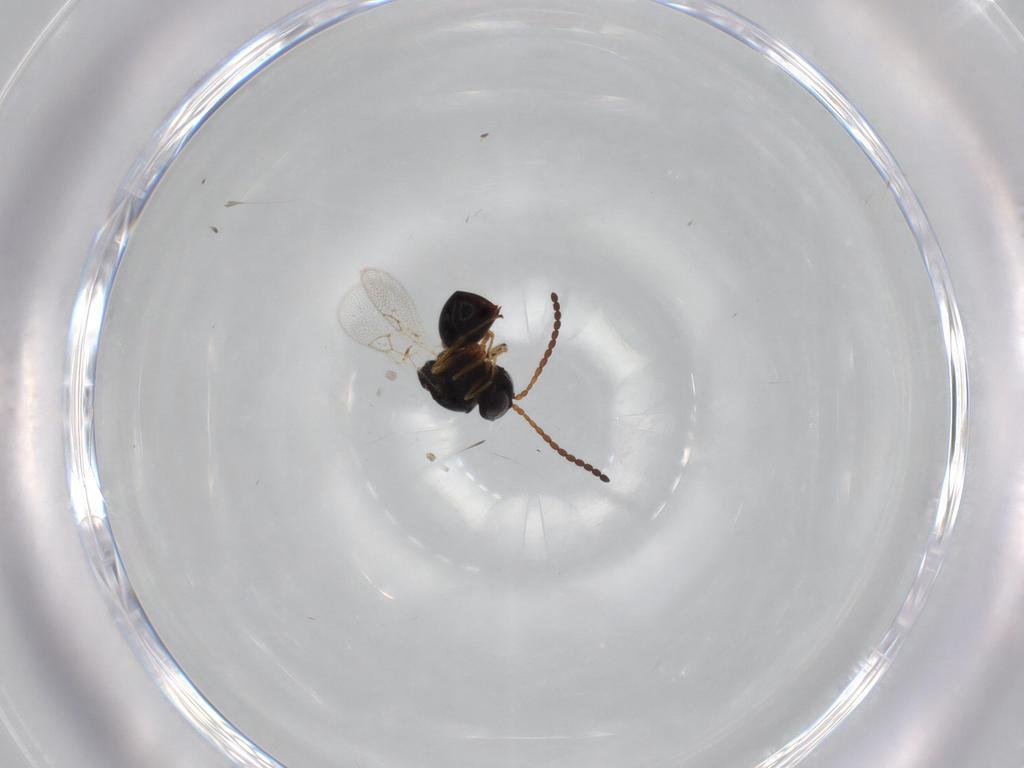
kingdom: Animalia
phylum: Arthropoda
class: Insecta
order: Hymenoptera
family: Figitidae
